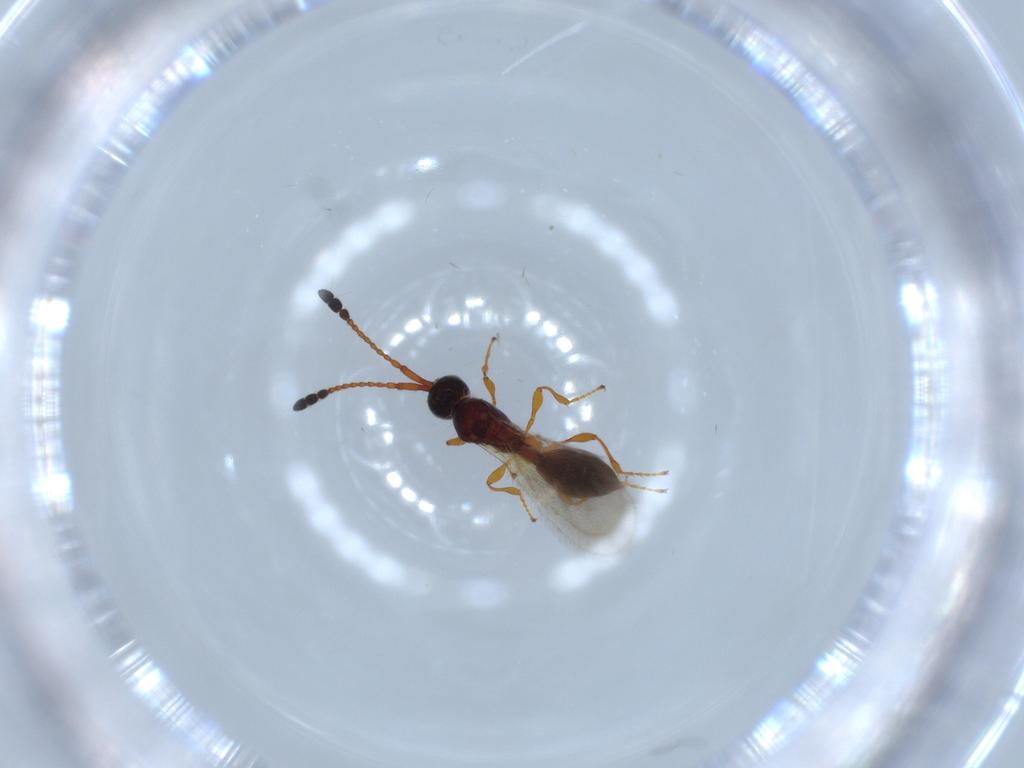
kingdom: Animalia
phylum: Arthropoda
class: Insecta
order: Hymenoptera
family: Diapriidae
